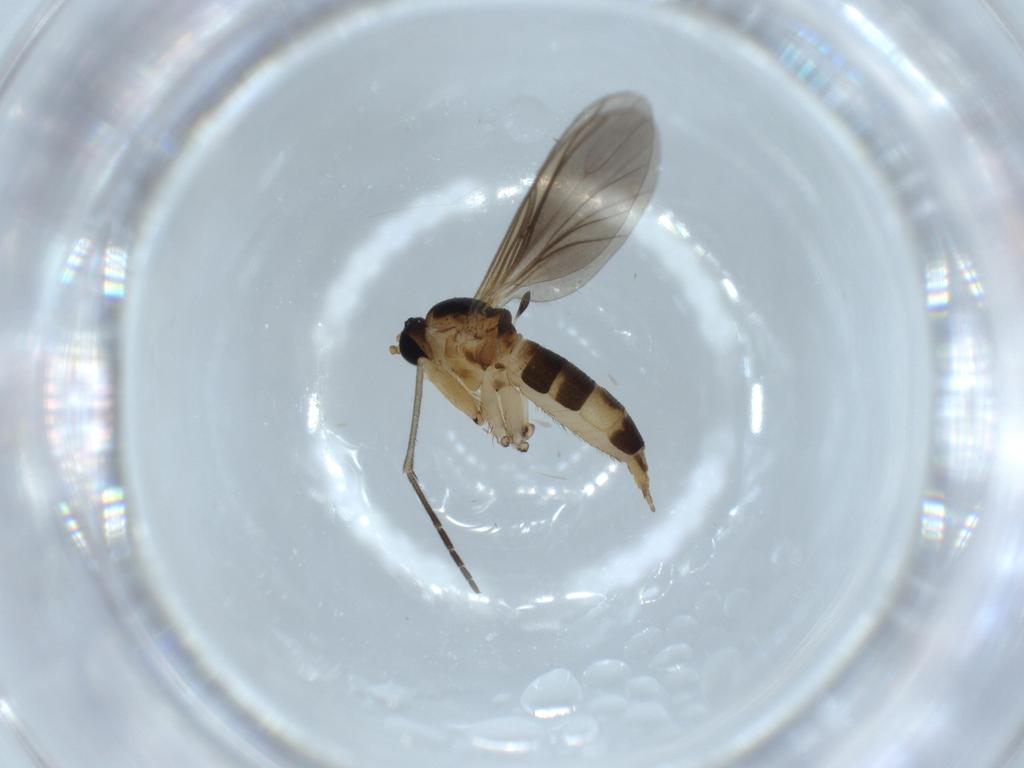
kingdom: Animalia
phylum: Arthropoda
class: Insecta
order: Diptera
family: Sciaridae
